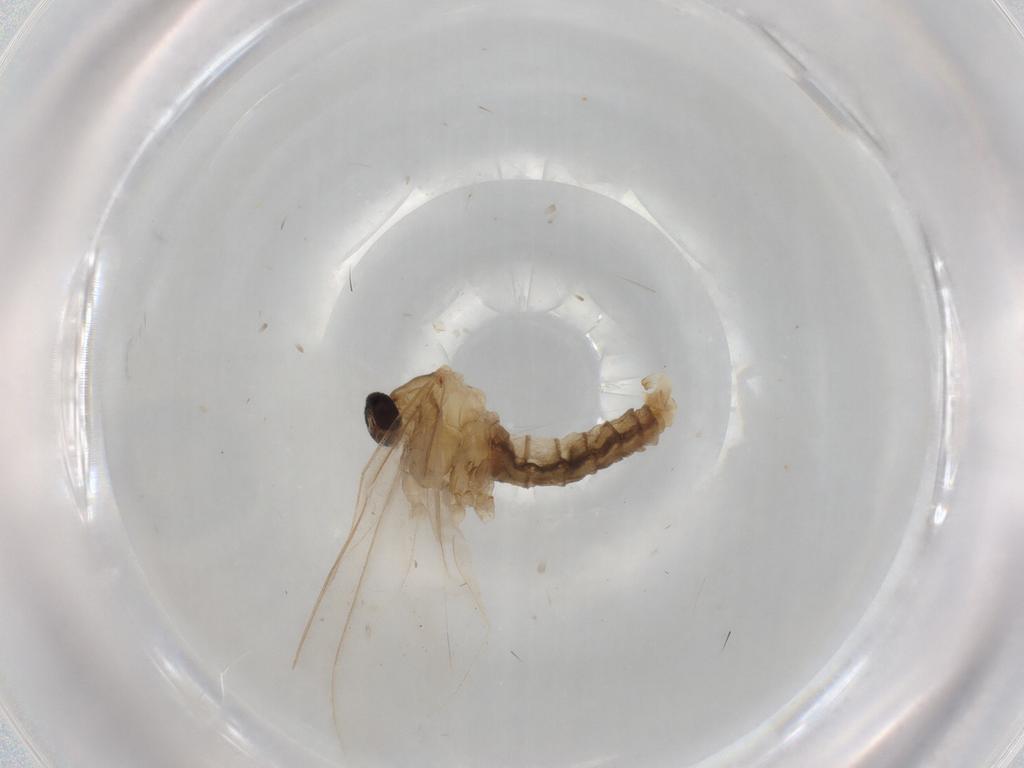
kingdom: Animalia
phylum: Arthropoda
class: Insecta
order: Diptera
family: Cecidomyiidae
